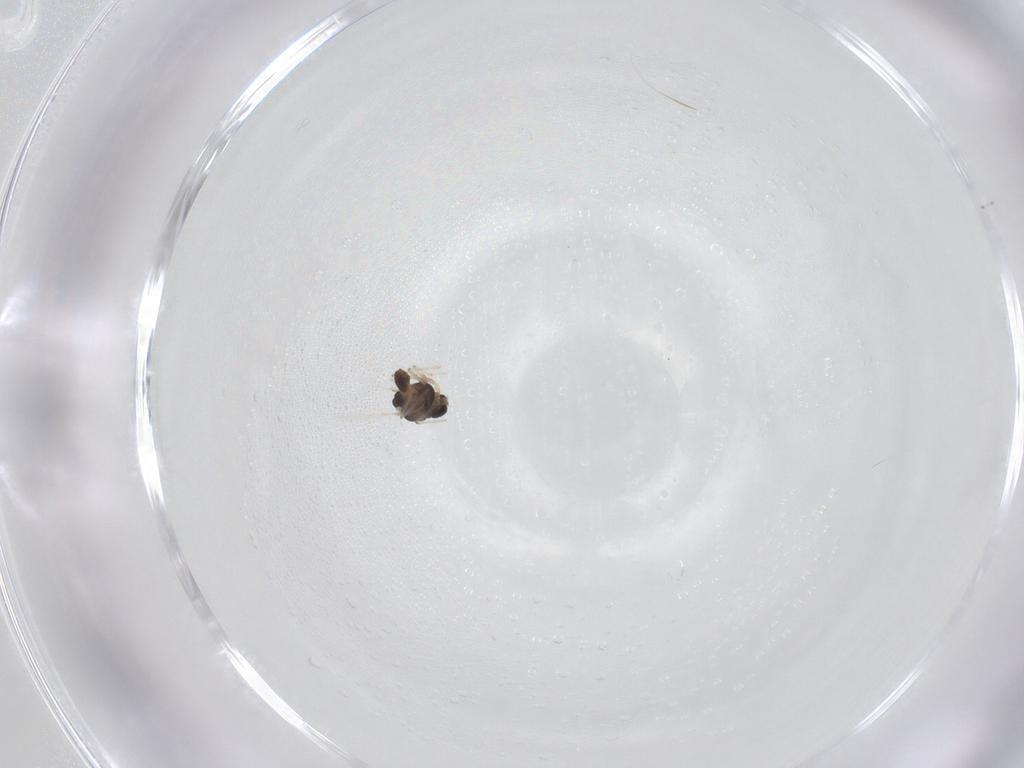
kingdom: Animalia
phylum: Arthropoda
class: Insecta
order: Diptera
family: Chironomidae
